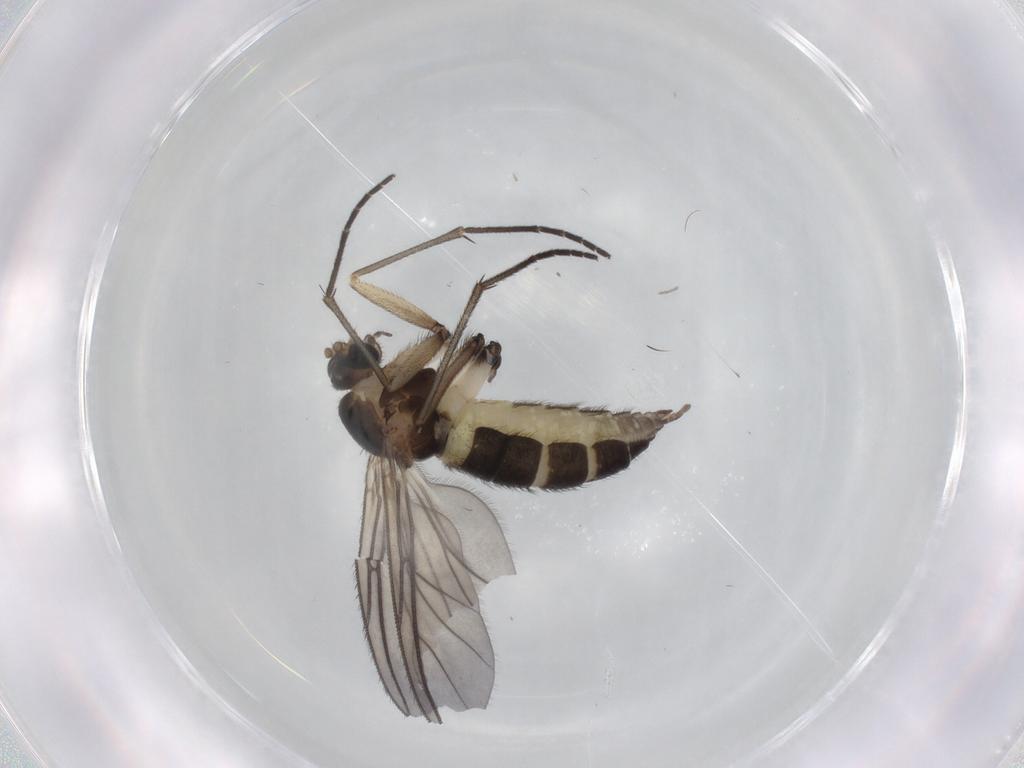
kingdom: Animalia
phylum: Arthropoda
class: Insecta
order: Diptera
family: Sciaridae
